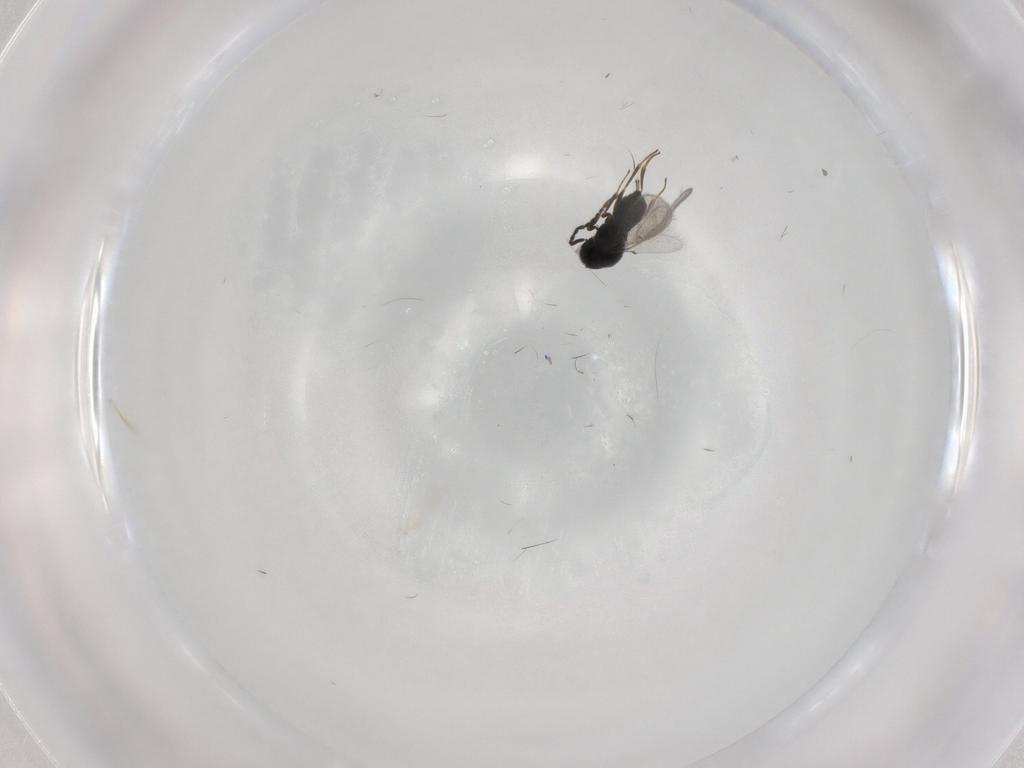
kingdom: Animalia
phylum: Arthropoda
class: Insecta
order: Hymenoptera
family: Scelionidae
